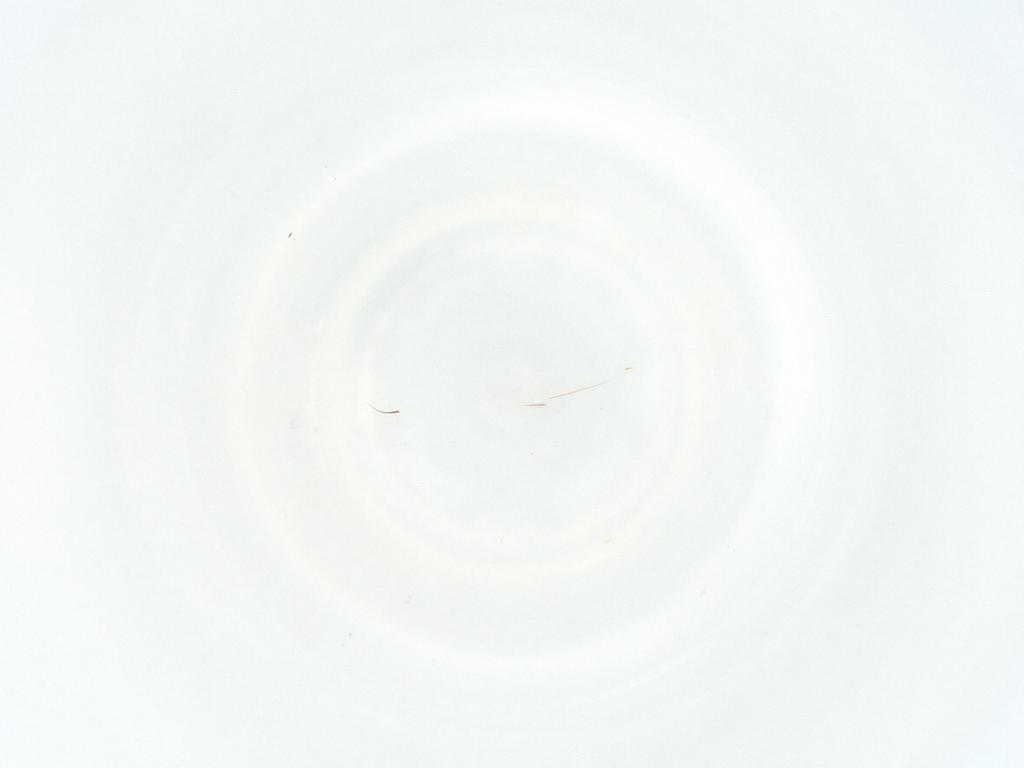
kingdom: Animalia
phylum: Arthropoda
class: Arachnida
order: Mesostigmata
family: Phytoseiidae
